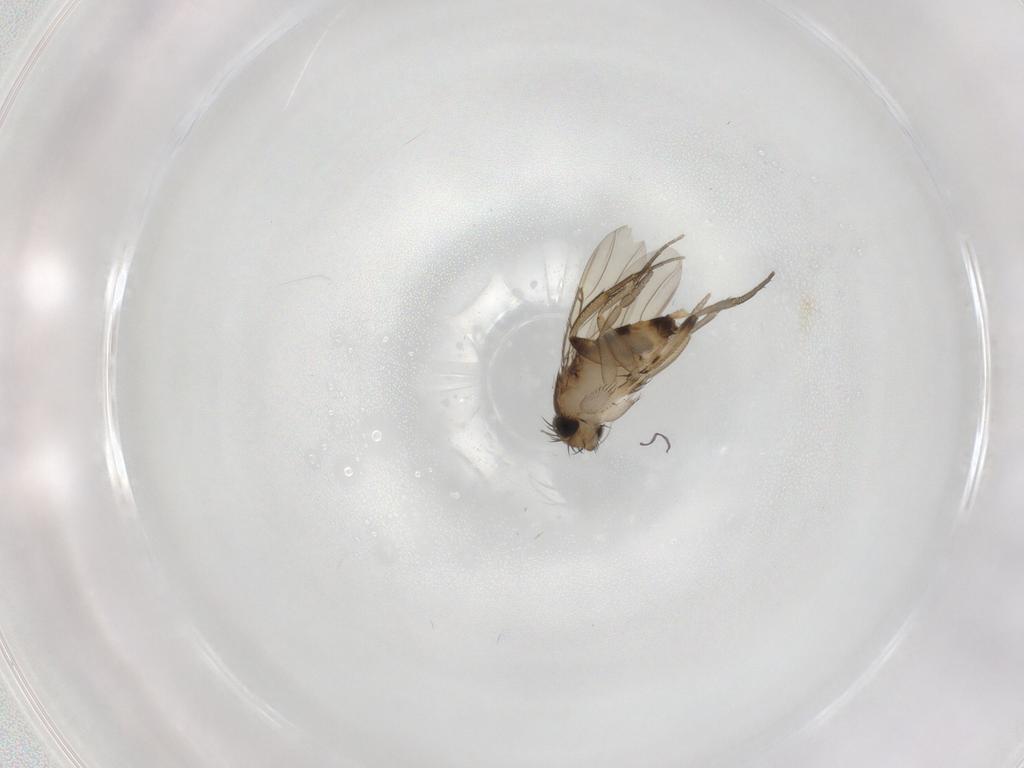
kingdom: Animalia
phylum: Arthropoda
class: Insecta
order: Diptera
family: Phoridae
